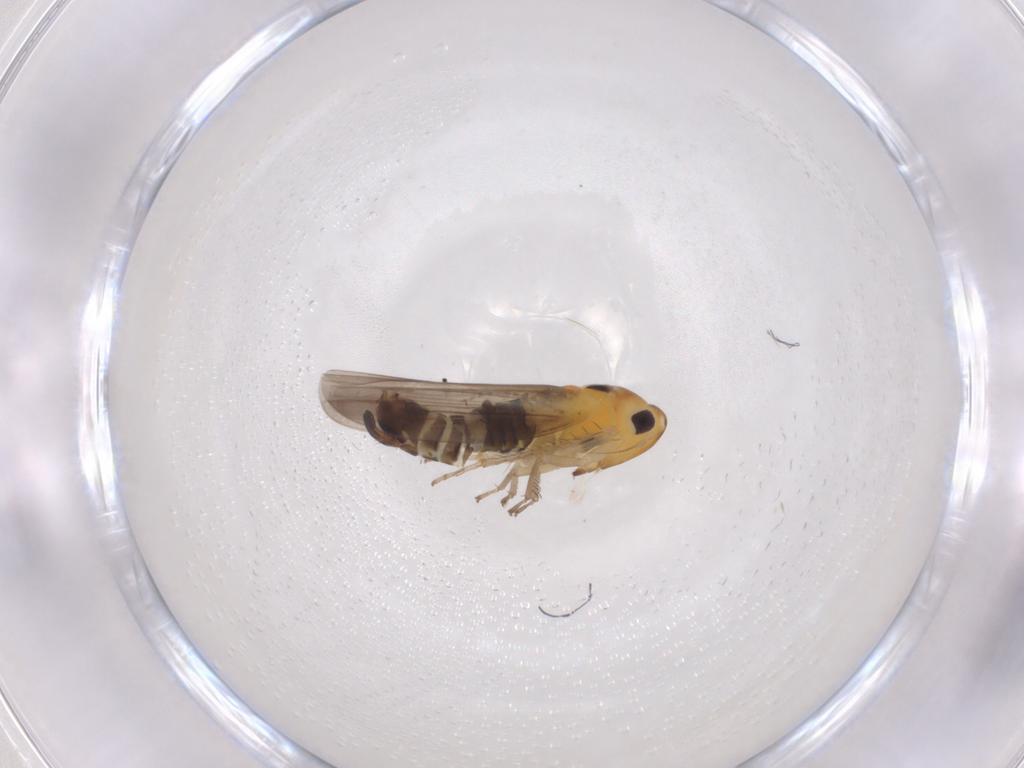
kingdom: Animalia
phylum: Arthropoda
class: Insecta
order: Hemiptera
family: Cicadellidae
